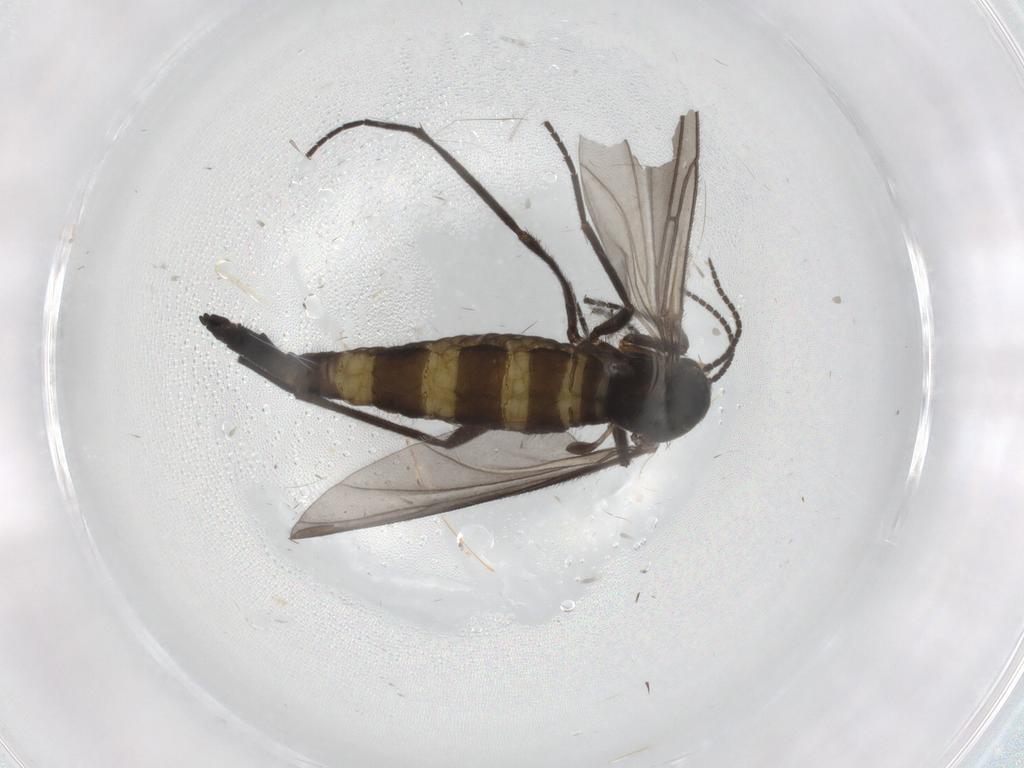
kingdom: Animalia
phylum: Arthropoda
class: Insecta
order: Diptera
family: Sciaridae
